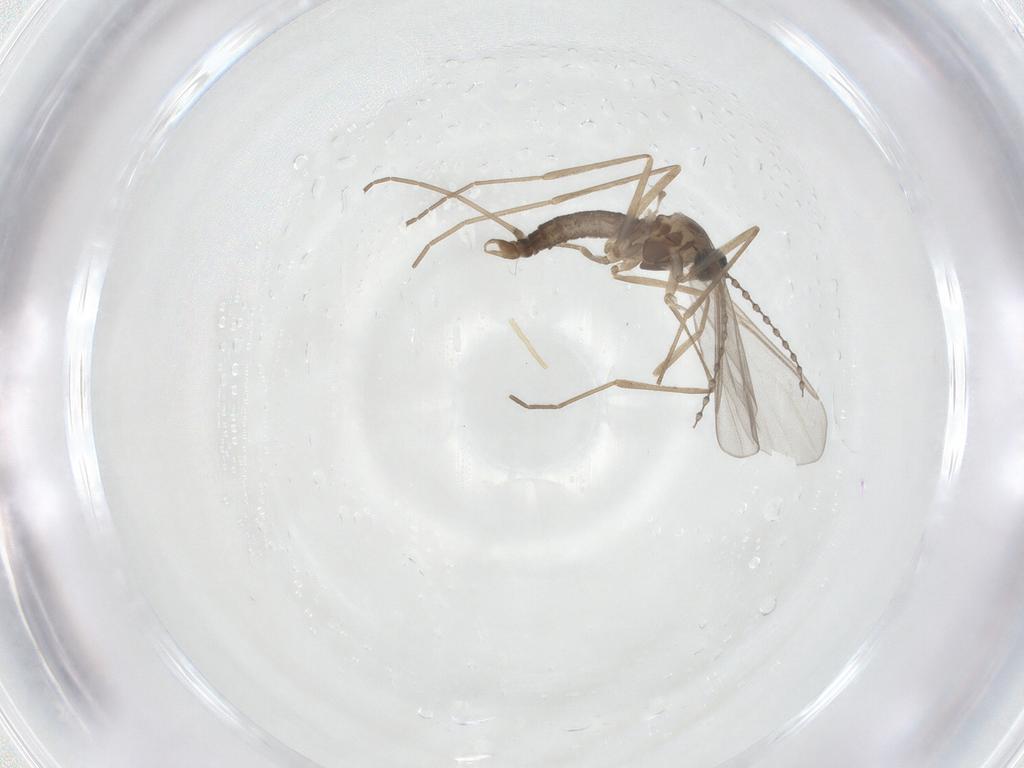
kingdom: Animalia
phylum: Arthropoda
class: Insecta
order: Diptera
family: Cecidomyiidae
